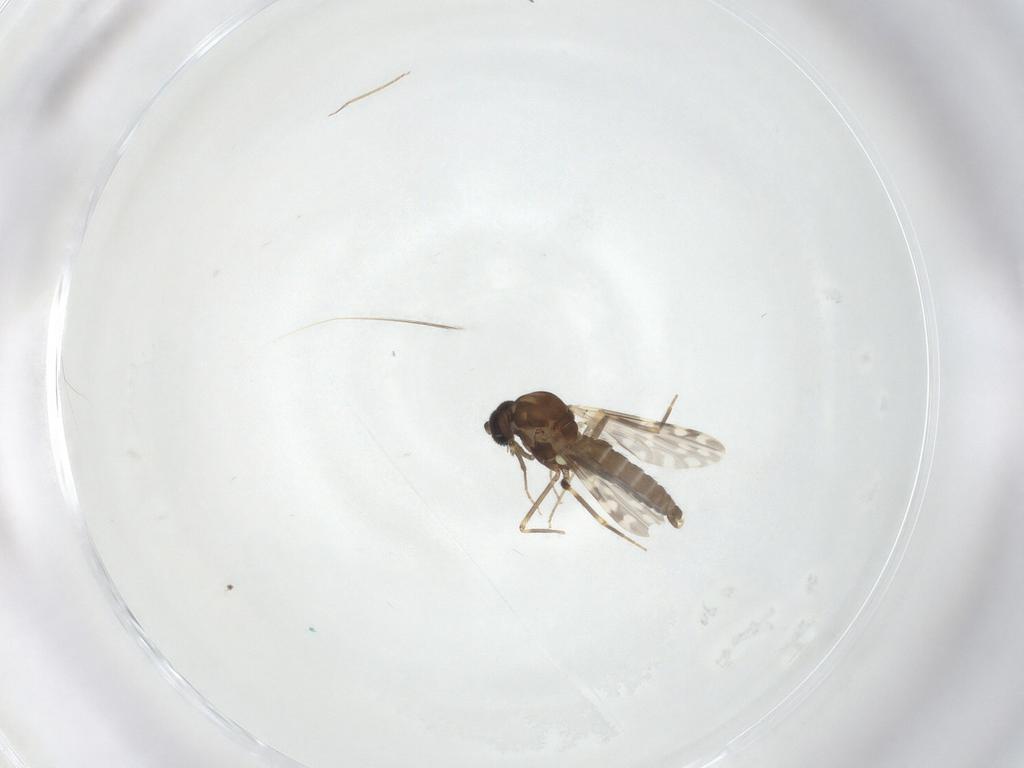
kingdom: Animalia
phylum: Arthropoda
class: Insecta
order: Diptera
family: Ceratopogonidae
